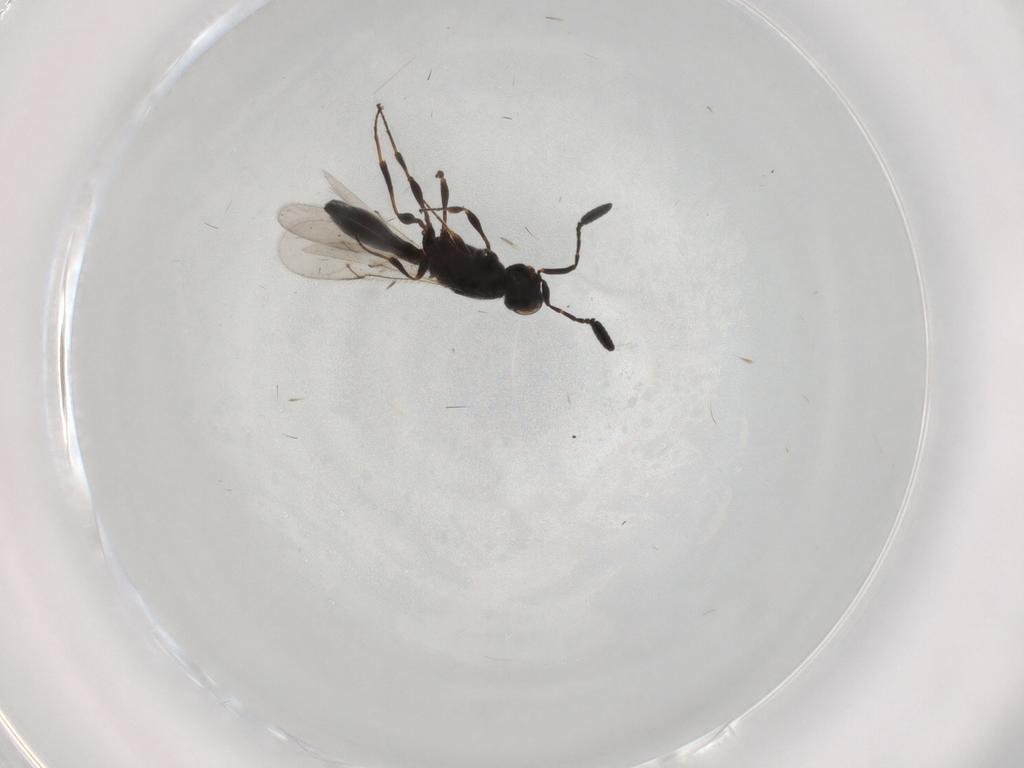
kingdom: Animalia
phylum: Arthropoda
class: Insecta
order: Hymenoptera
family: Scelionidae
